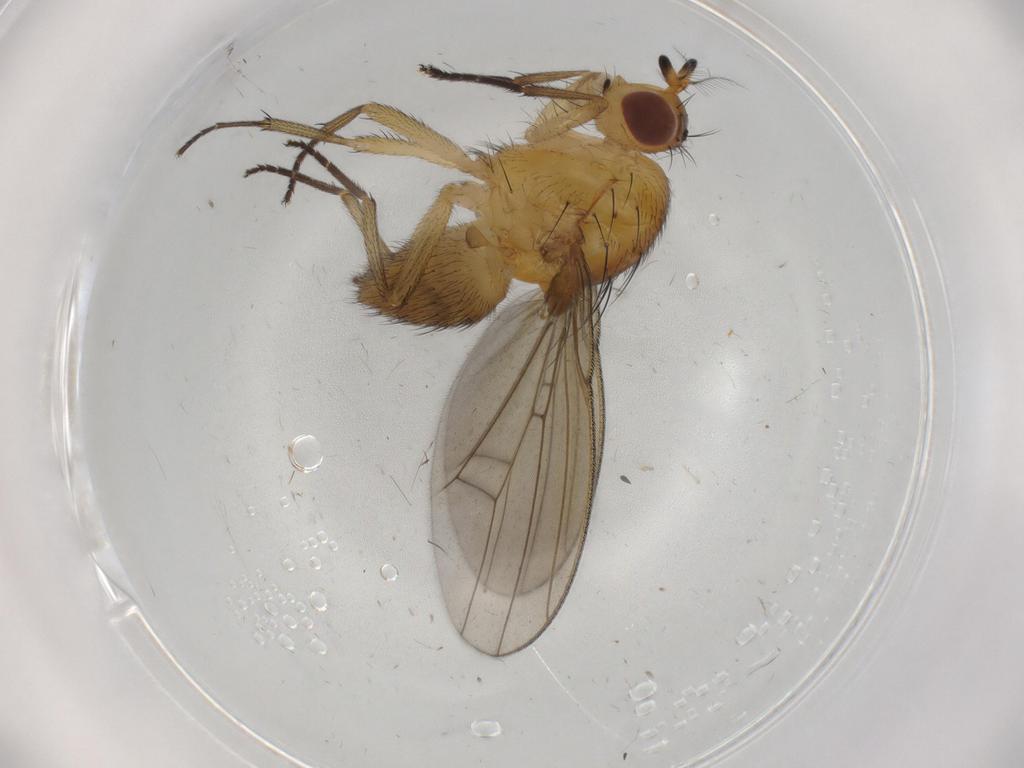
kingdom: Animalia
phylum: Arthropoda
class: Insecta
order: Diptera
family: Lauxaniidae
